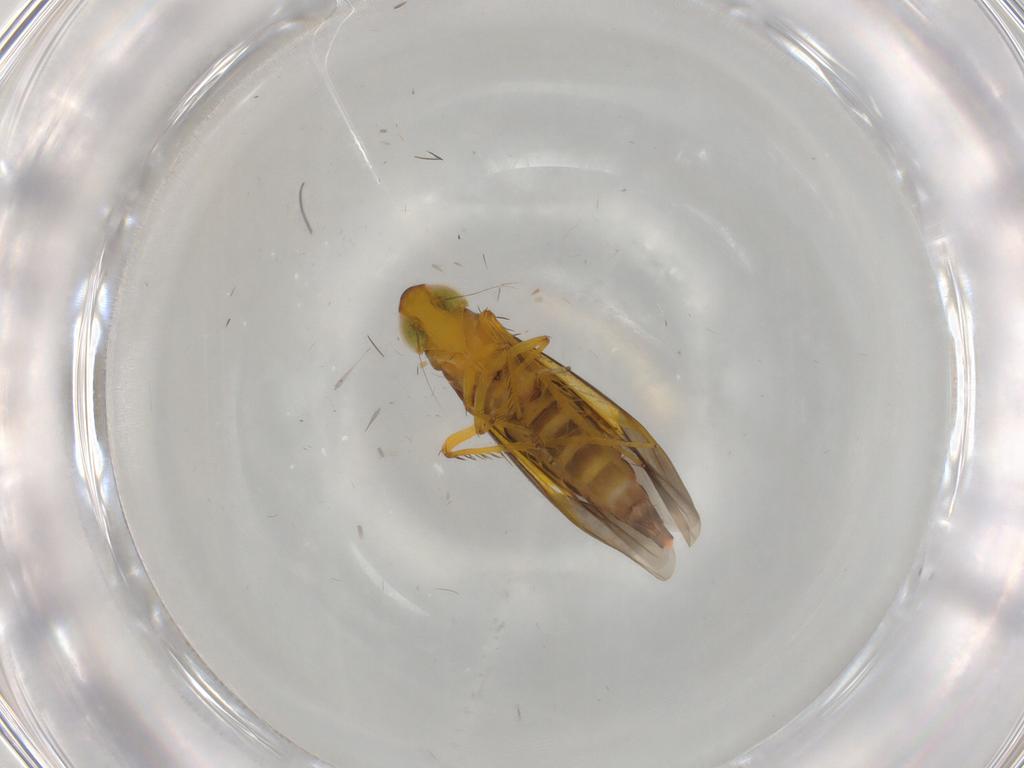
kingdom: Animalia
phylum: Arthropoda
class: Insecta
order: Hemiptera
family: Cicadellidae
